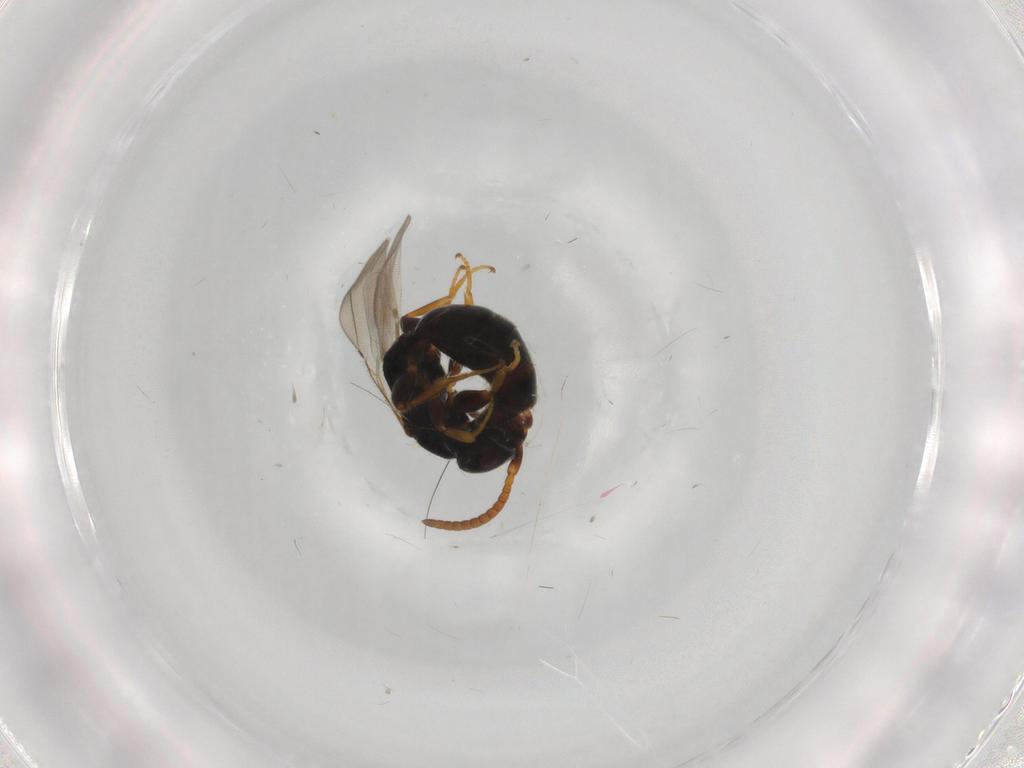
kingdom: Animalia
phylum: Arthropoda
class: Insecta
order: Hymenoptera
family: Bethylidae
